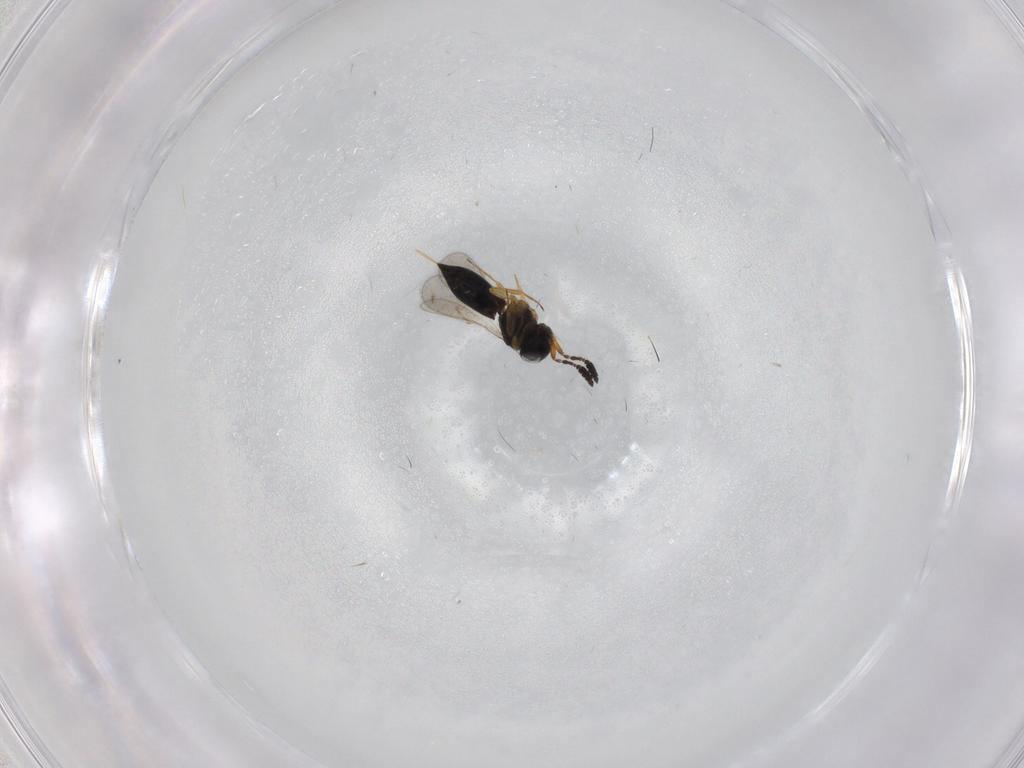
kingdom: Animalia
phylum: Arthropoda
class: Insecta
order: Hymenoptera
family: Scelionidae
